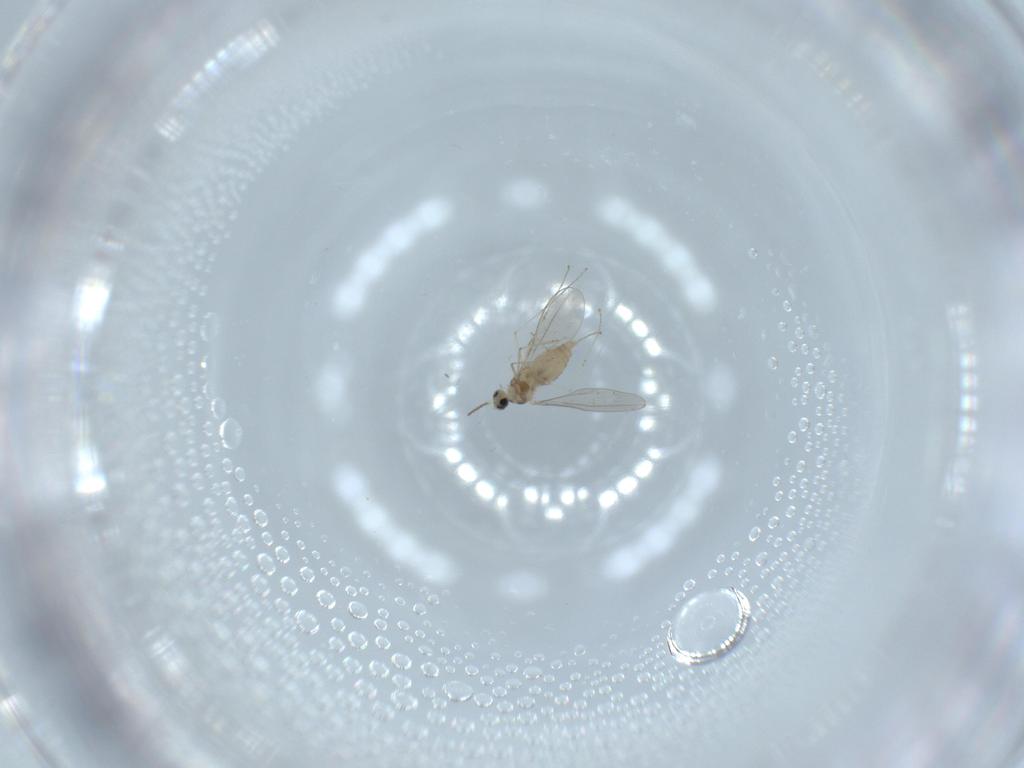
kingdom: Animalia
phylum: Arthropoda
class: Insecta
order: Diptera
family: Cecidomyiidae
